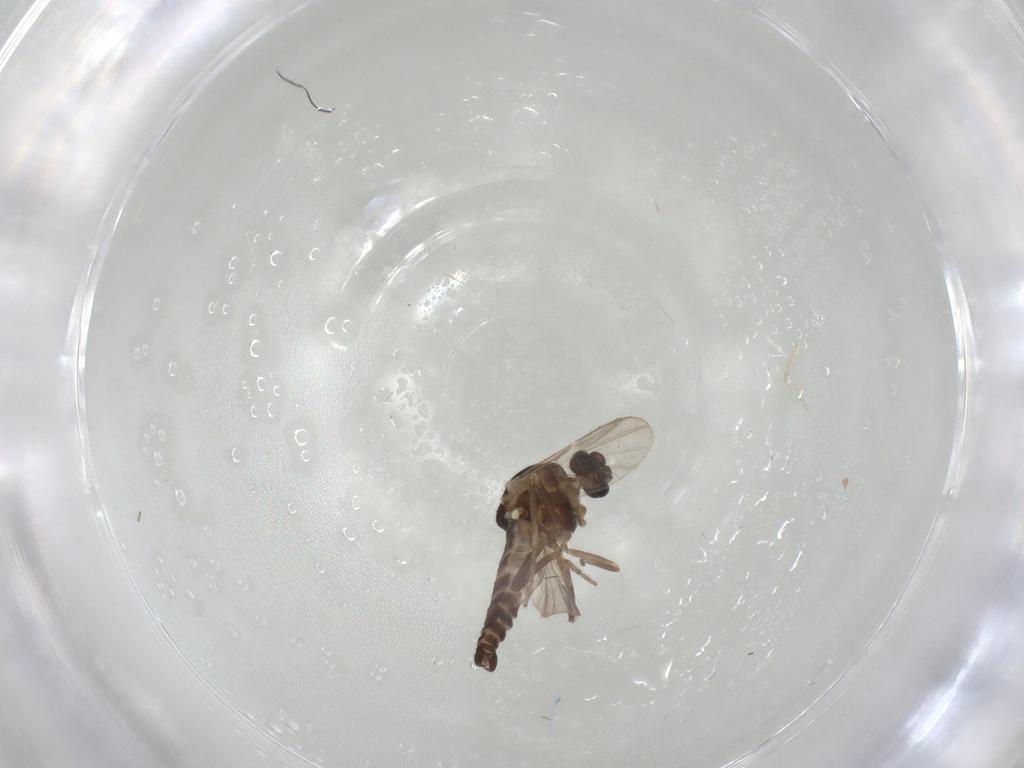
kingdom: Animalia
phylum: Arthropoda
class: Insecta
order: Diptera
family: Ceratopogonidae
